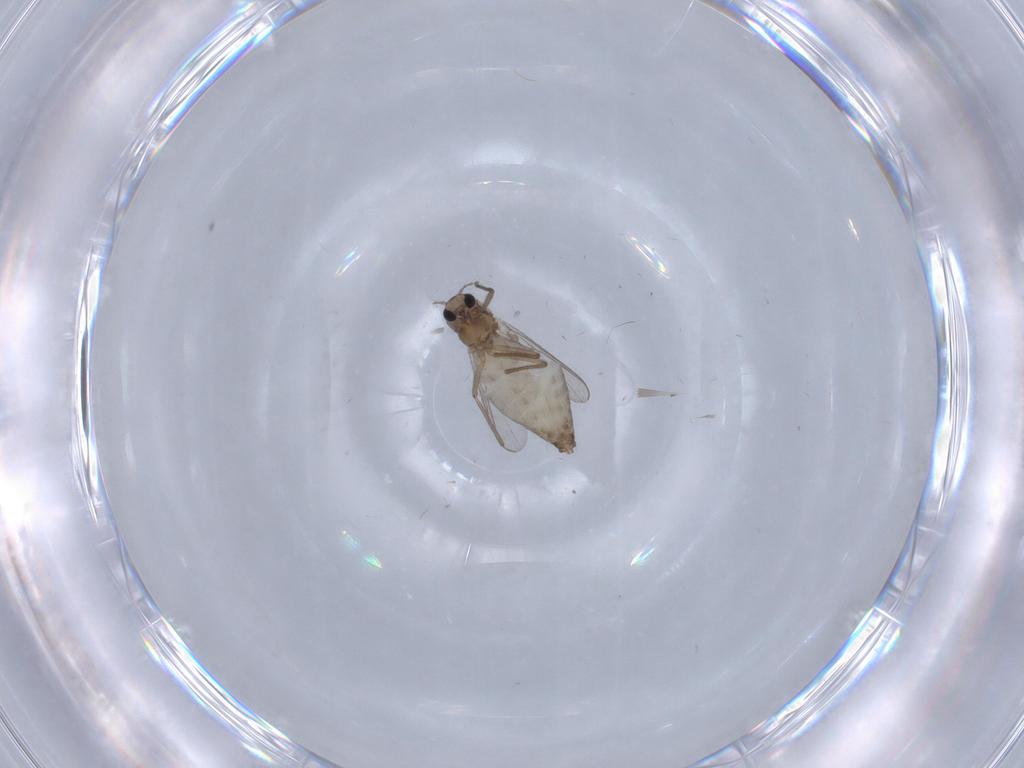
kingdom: Animalia
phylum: Arthropoda
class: Insecta
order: Diptera
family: Chironomidae
